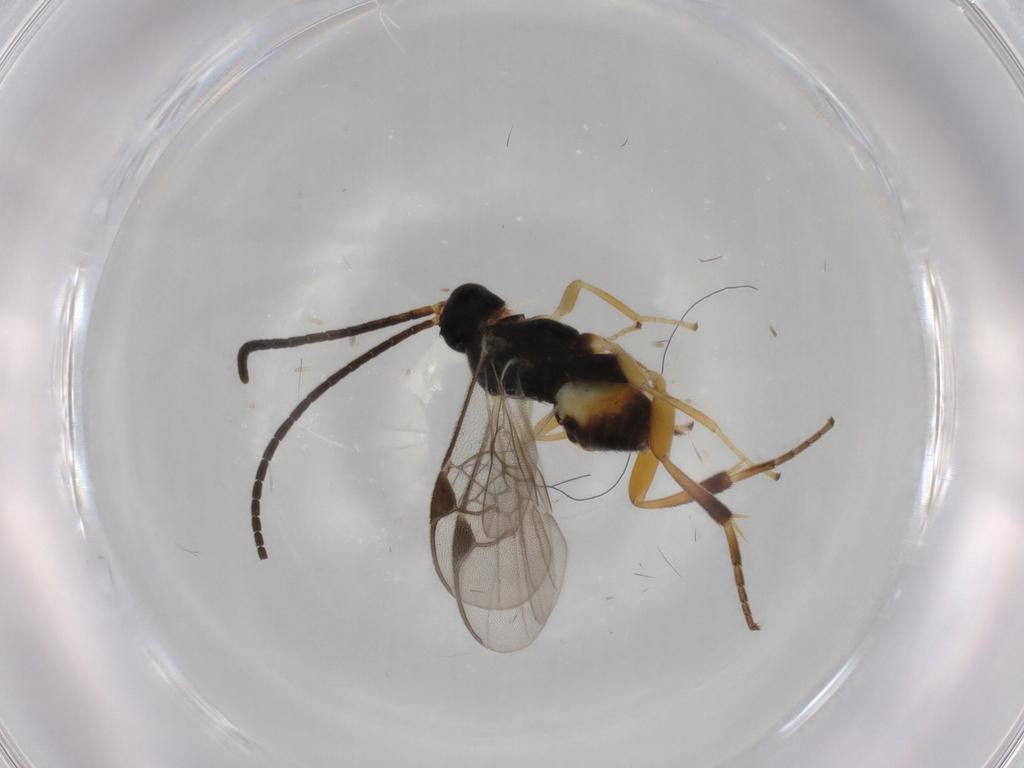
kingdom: Animalia
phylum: Arthropoda
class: Insecta
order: Hymenoptera
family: Braconidae
